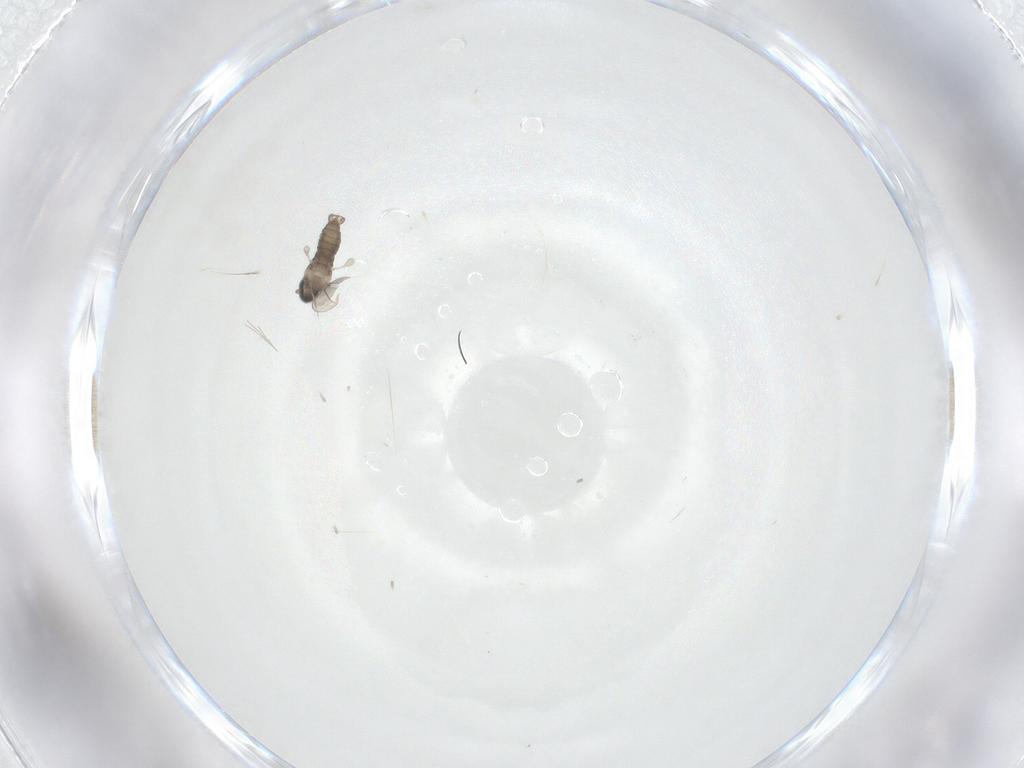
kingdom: Animalia
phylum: Arthropoda
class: Insecta
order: Diptera
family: Cecidomyiidae
